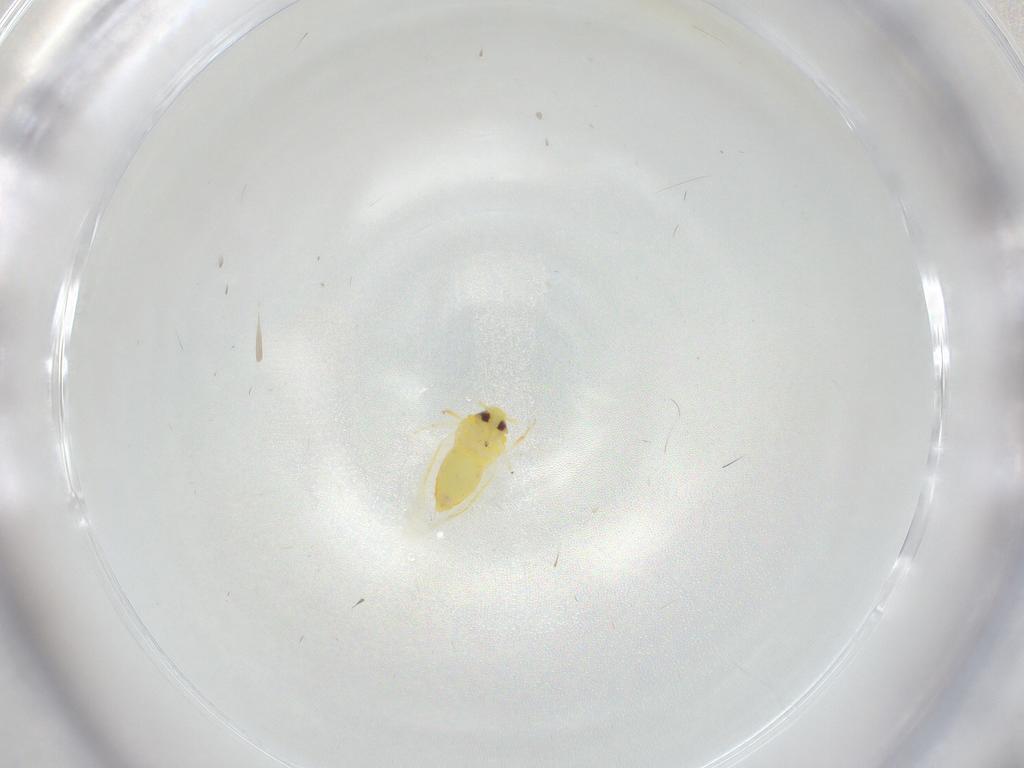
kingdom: Animalia
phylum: Arthropoda
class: Insecta
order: Hemiptera
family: Aleyrodidae
